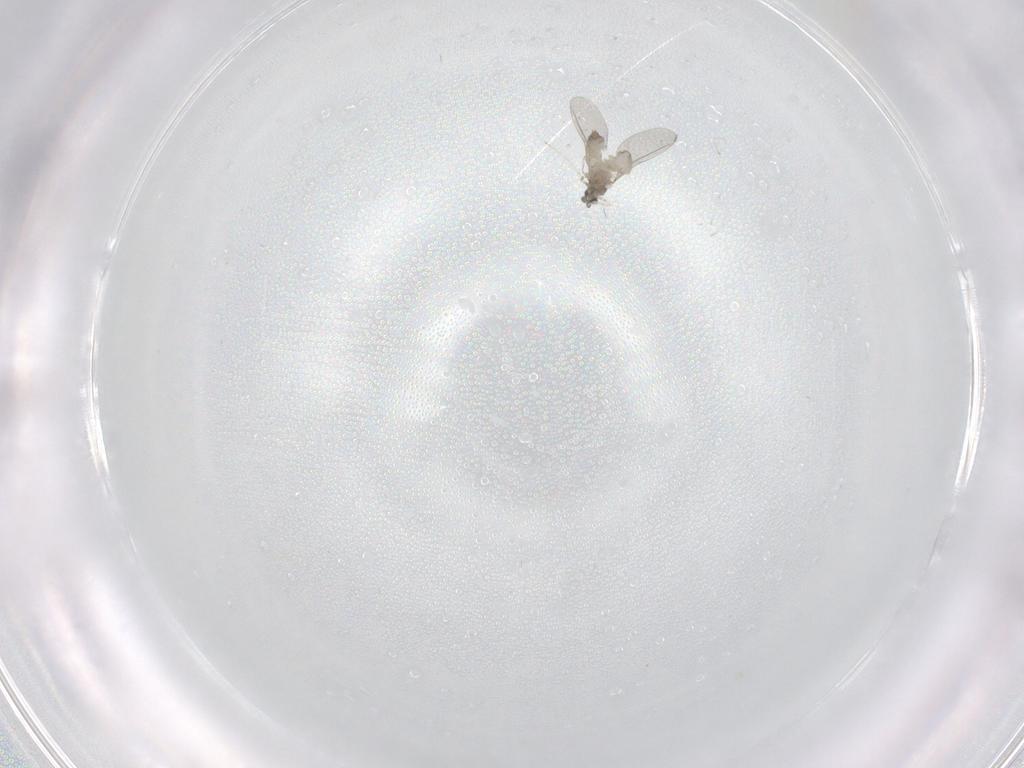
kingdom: Animalia
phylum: Arthropoda
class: Insecta
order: Diptera
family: Cecidomyiidae
